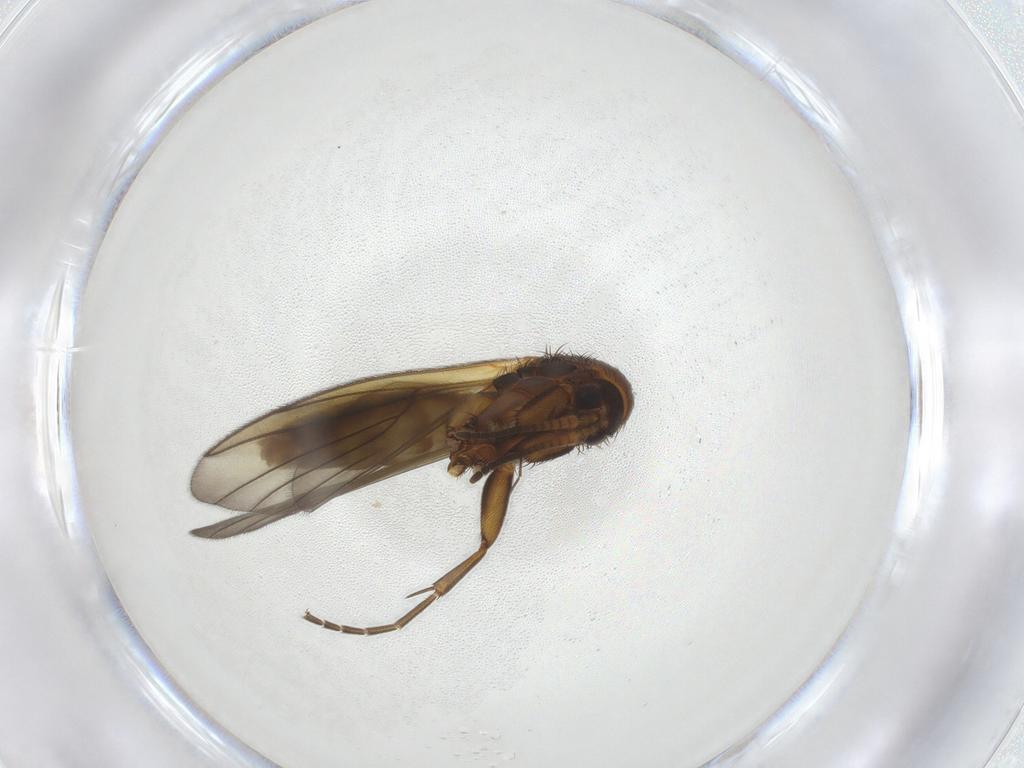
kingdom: Animalia
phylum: Arthropoda
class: Insecta
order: Diptera
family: Chironomidae
